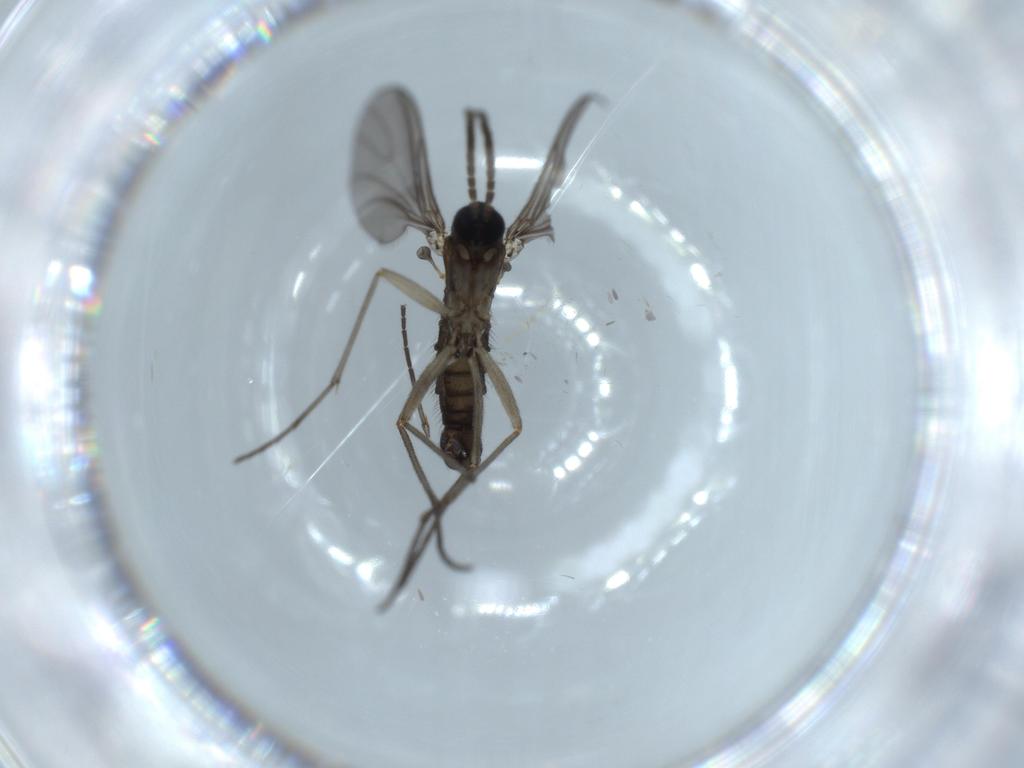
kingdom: Animalia
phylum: Arthropoda
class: Insecta
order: Diptera
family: Sciaridae
